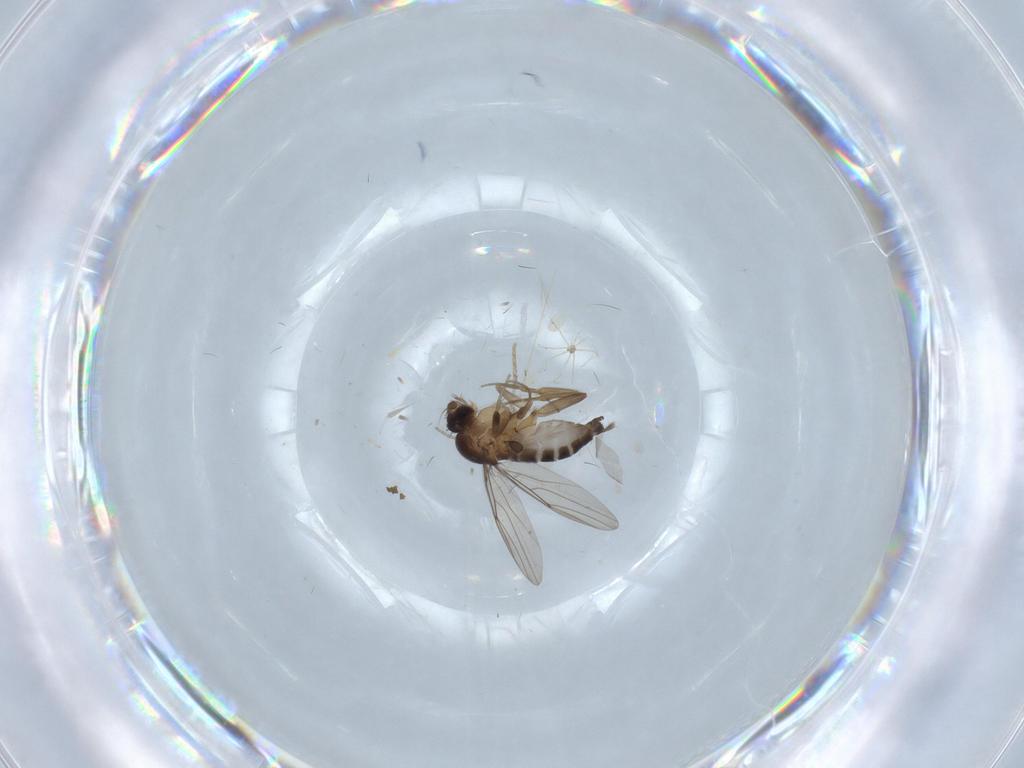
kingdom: Animalia
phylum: Arthropoda
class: Insecta
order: Diptera
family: Phoridae
